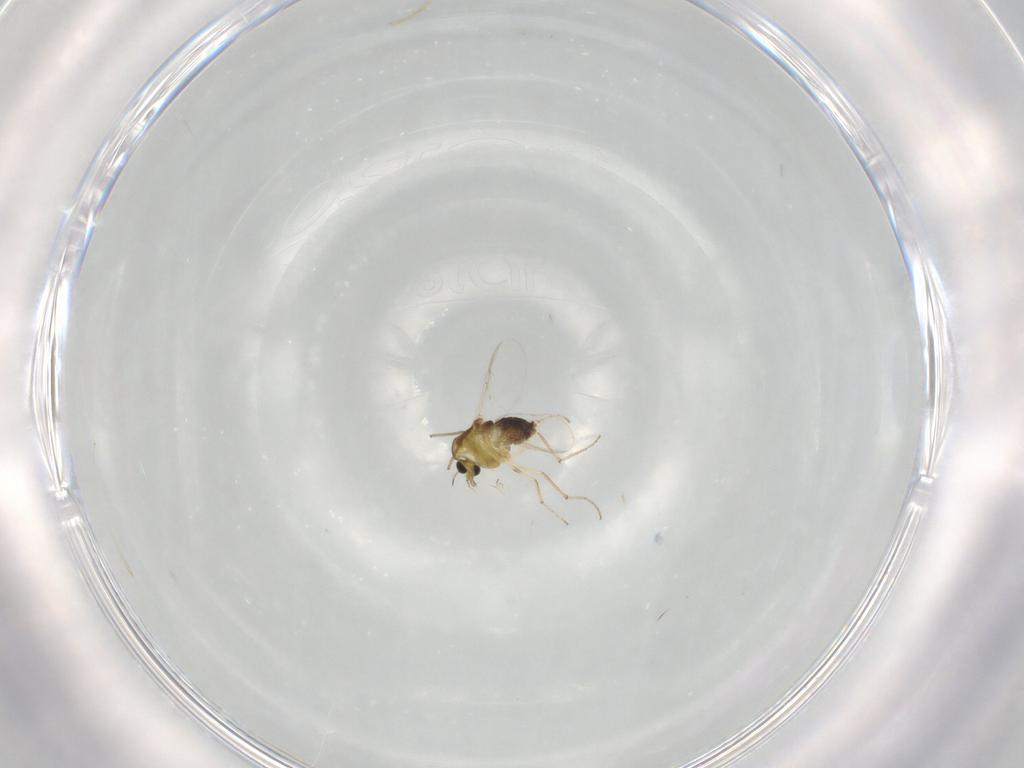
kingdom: Animalia
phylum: Arthropoda
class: Insecta
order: Diptera
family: Chironomidae
